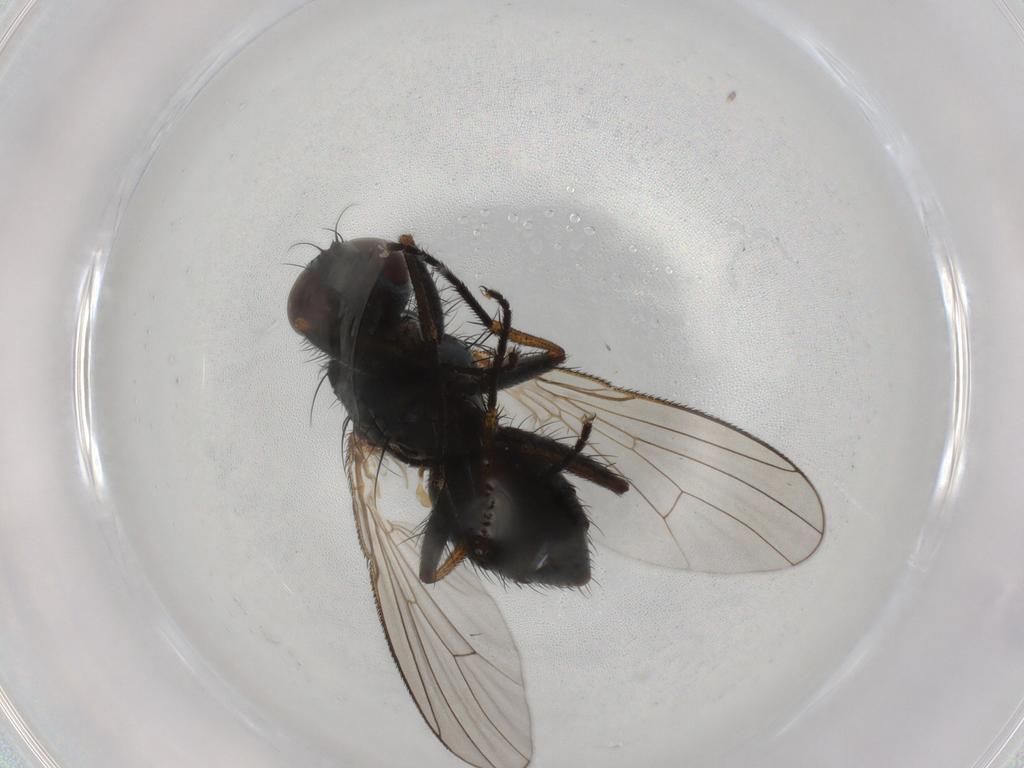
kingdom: Animalia
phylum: Arthropoda
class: Insecta
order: Diptera
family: Muscidae
